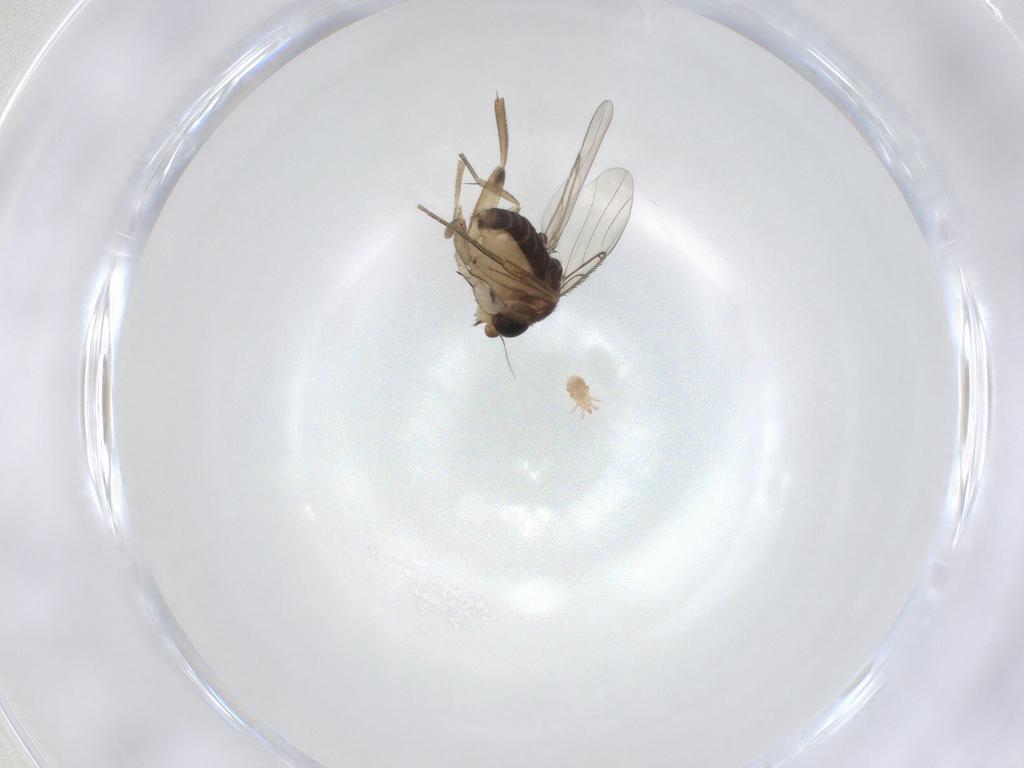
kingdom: Animalia
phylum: Arthropoda
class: Insecta
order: Diptera
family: Phoridae
